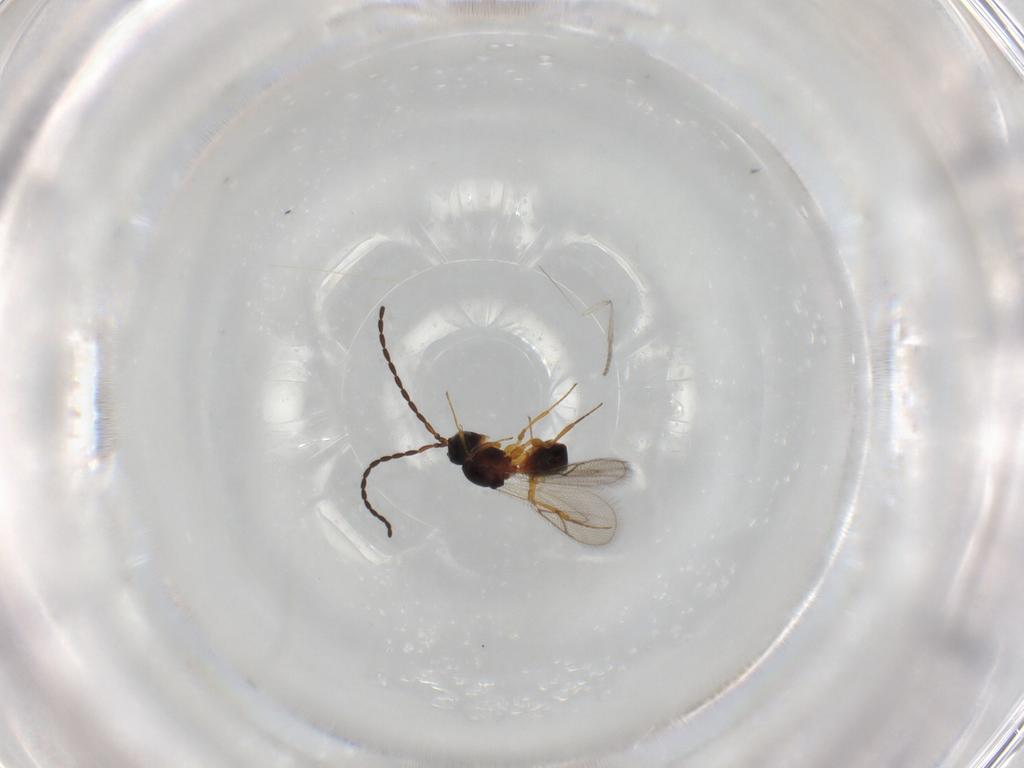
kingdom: Animalia
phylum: Arthropoda
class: Insecta
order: Hymenoptera
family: Figitidae
